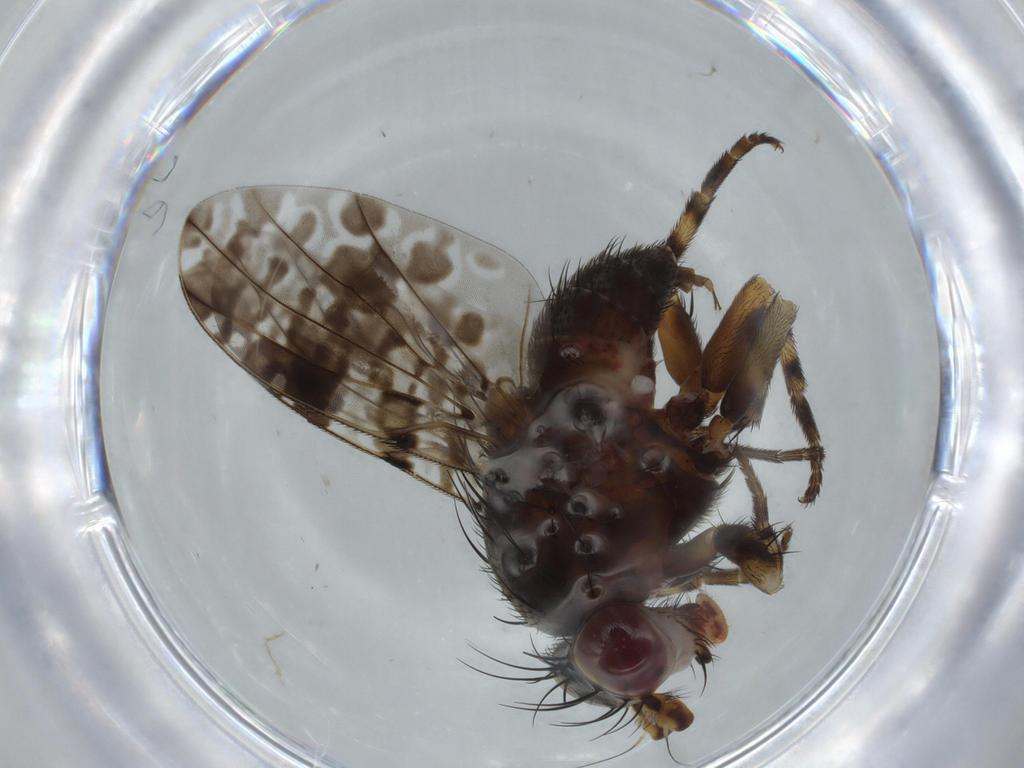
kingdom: Animalia
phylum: Arthropoda
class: Insecta
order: Diptera
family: Odiniidae
